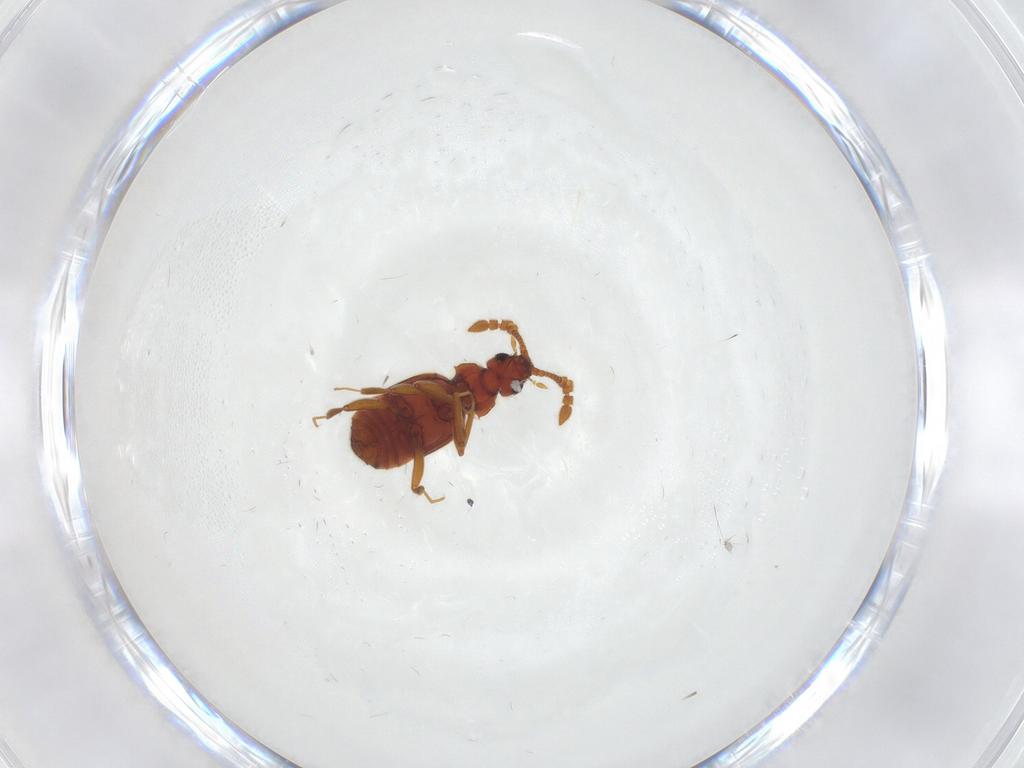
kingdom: Animalia
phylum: Arthropoda
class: Insecta
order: Coleoptera
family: Staphylinidae
